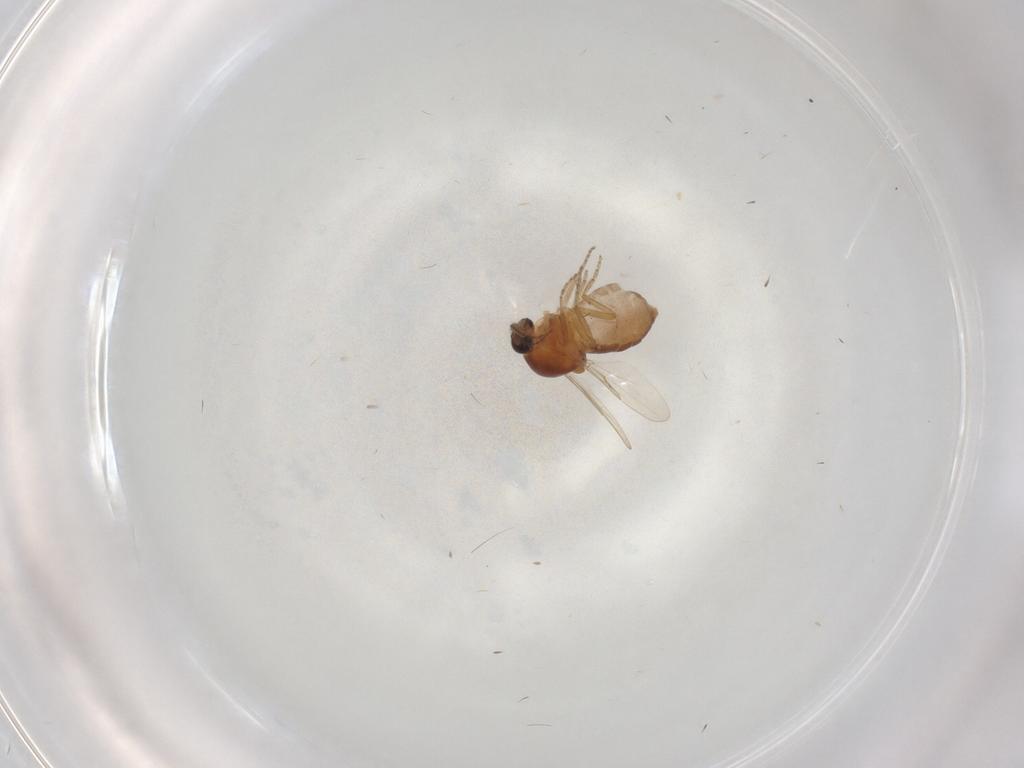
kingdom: Animalia
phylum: Arthropoda
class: Insecta
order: Diptera
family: Ceratopogonidae
